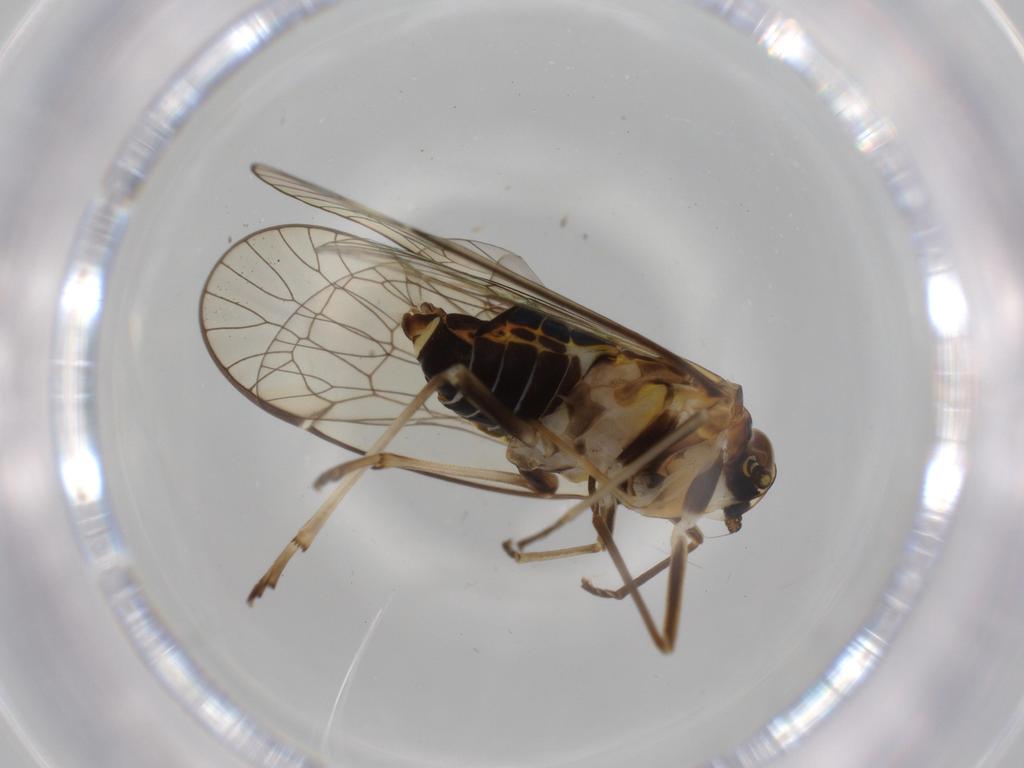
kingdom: Animalia
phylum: Arthropoda
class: Insecta
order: Hemiptera
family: Kinnaridae
